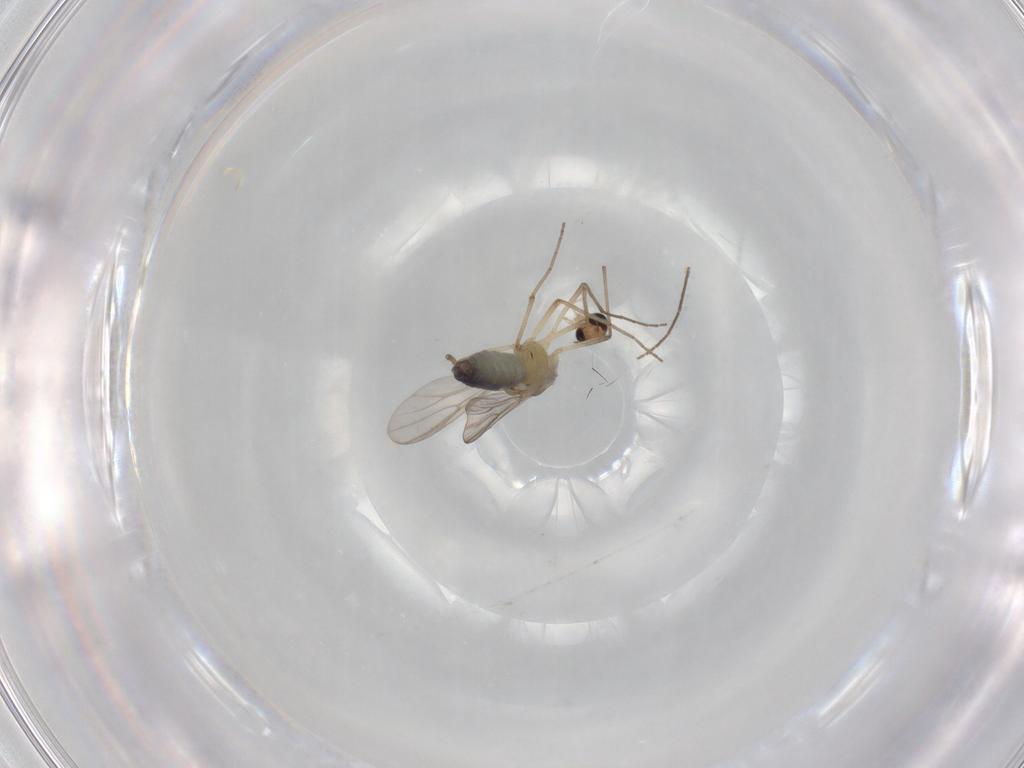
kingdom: Animalia
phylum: Arthropoda
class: Insecta
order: Diptera
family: Chironomidae
